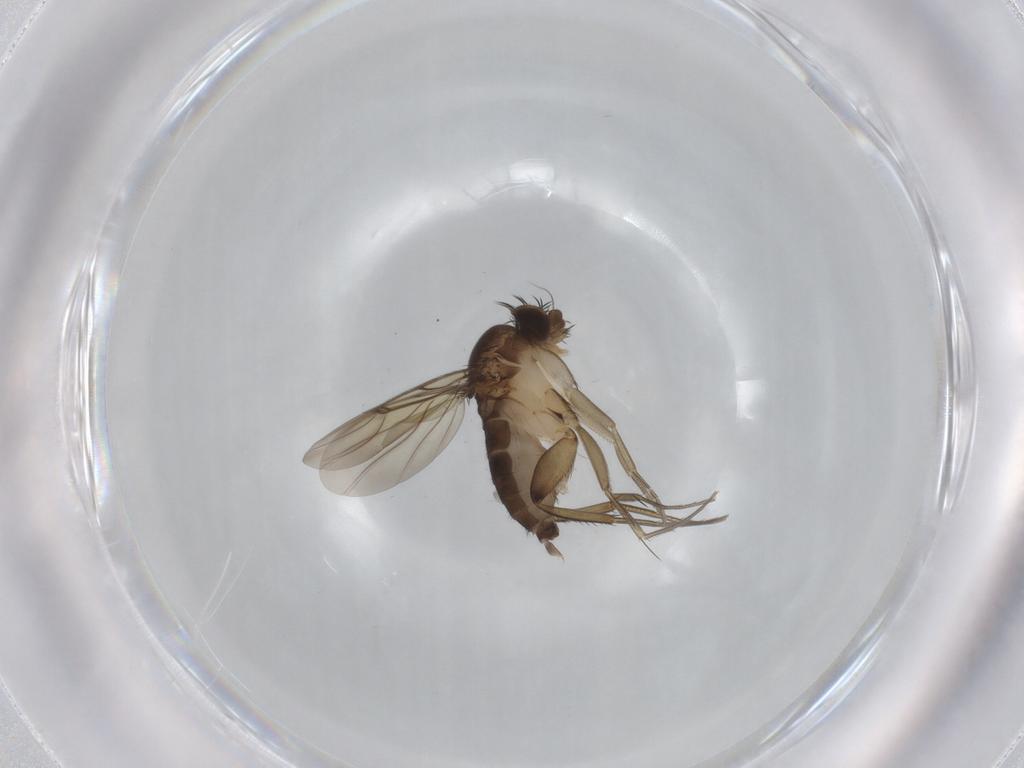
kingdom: Animalia
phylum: Arthropoda
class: Insecta
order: Diptera
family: Phoridae
